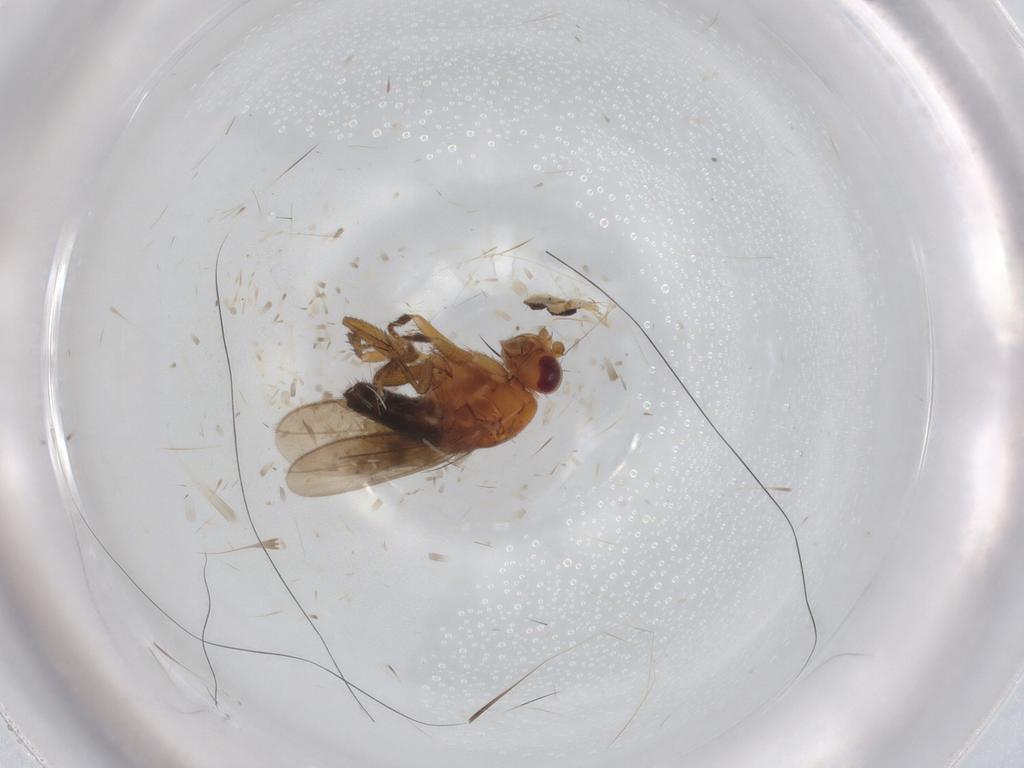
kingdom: Animalia
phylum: Arthropoda
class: Insecta
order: Diptera
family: Sphaeroceridae
